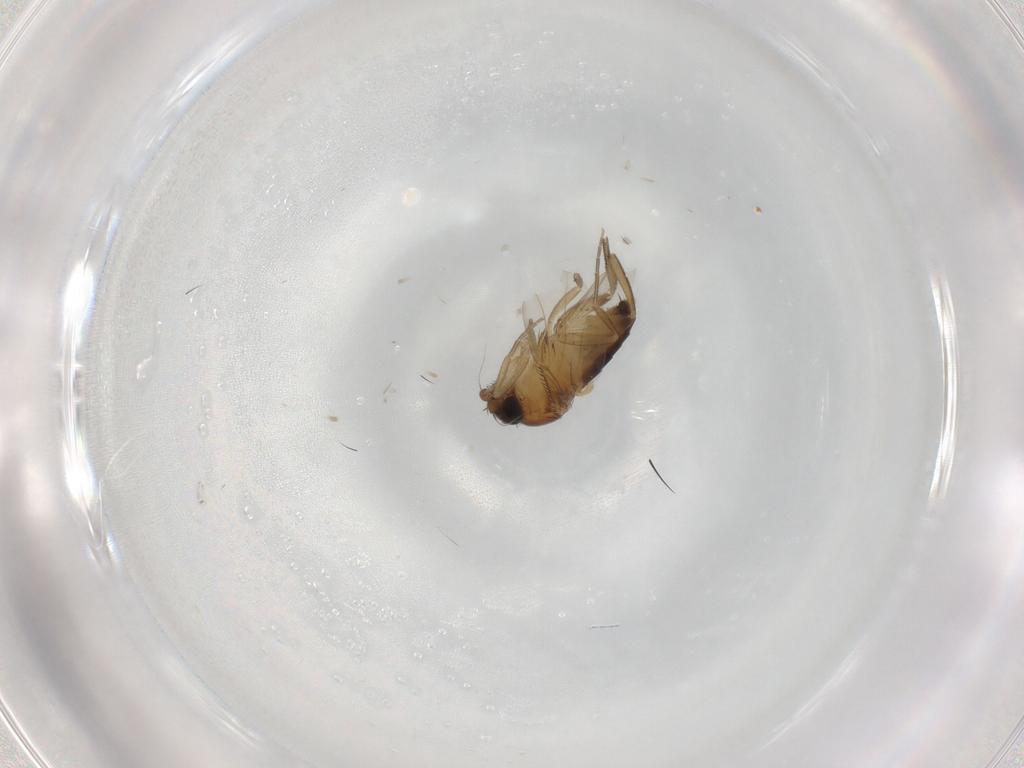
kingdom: Animalia
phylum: Arthropoda
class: Insecta
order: Diptera
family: Phoridae
